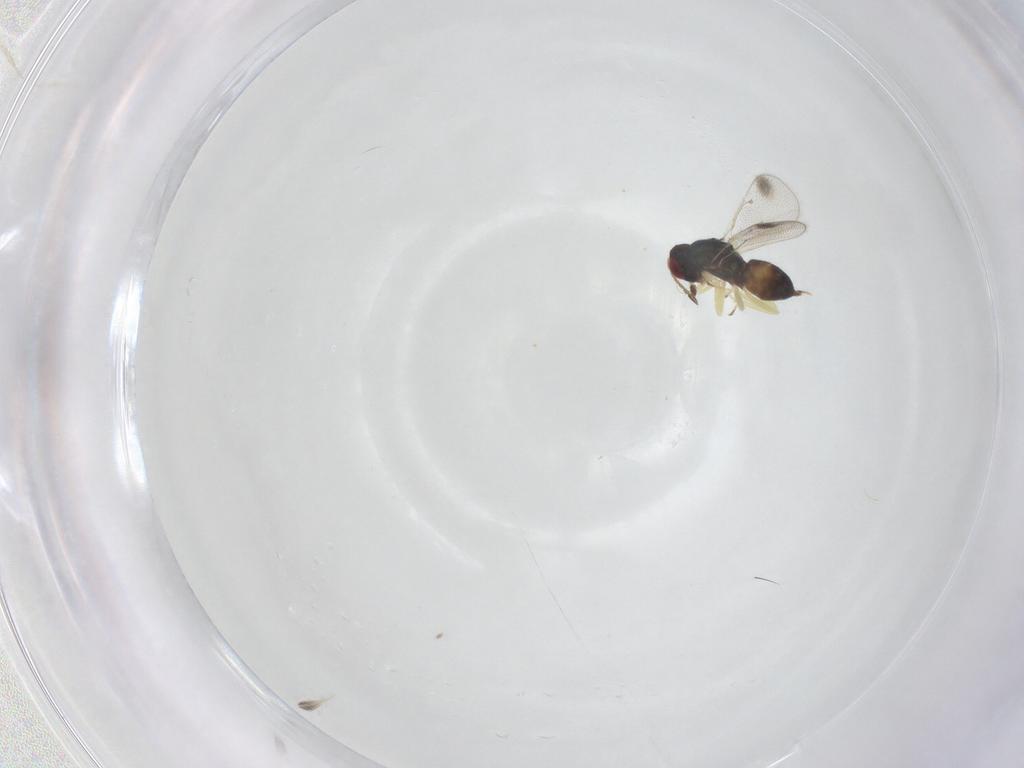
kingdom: Animalia
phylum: Arthropoda
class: Insecta
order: Hymenoptera
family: Eulophidae
